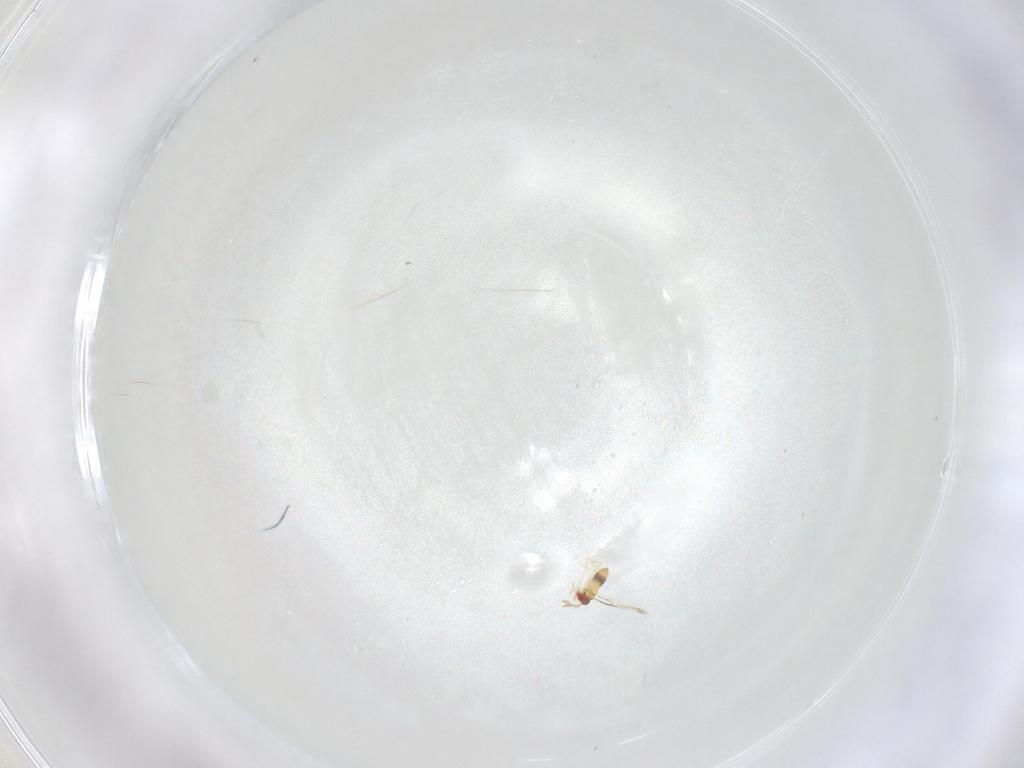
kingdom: Animalia
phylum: Arthropoda
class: Insecta
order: Hymenoptera
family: Trichogrammatidae
